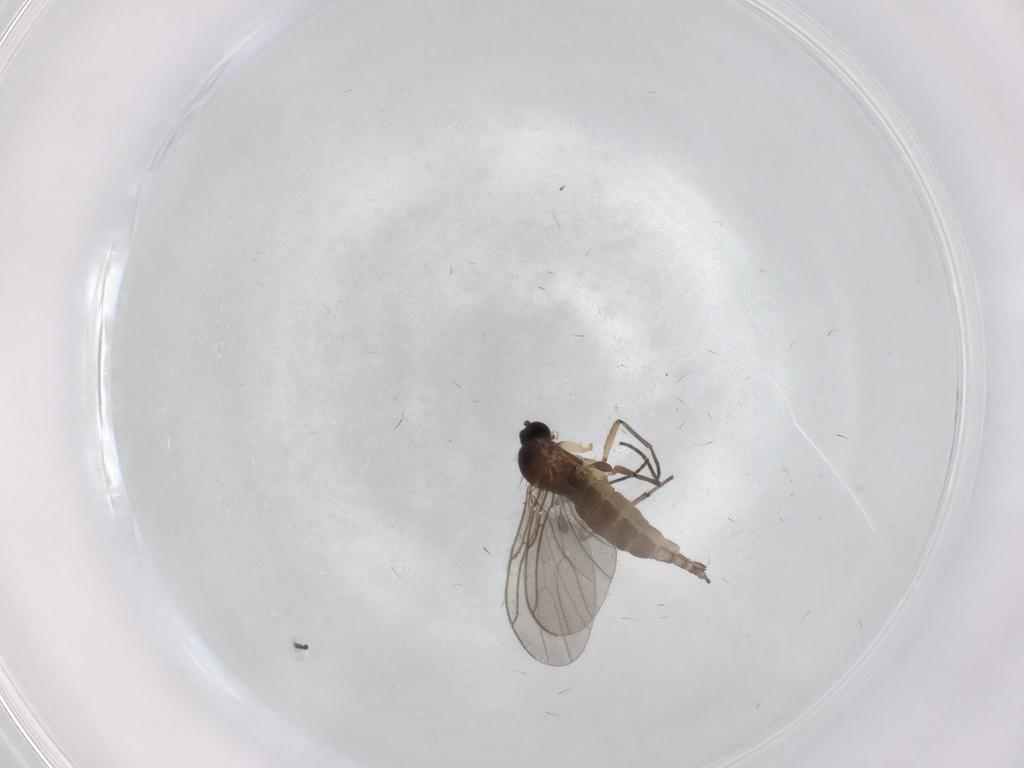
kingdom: Animalia
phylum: Arthropoda
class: Insecta
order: Diptera
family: Sciaridae
